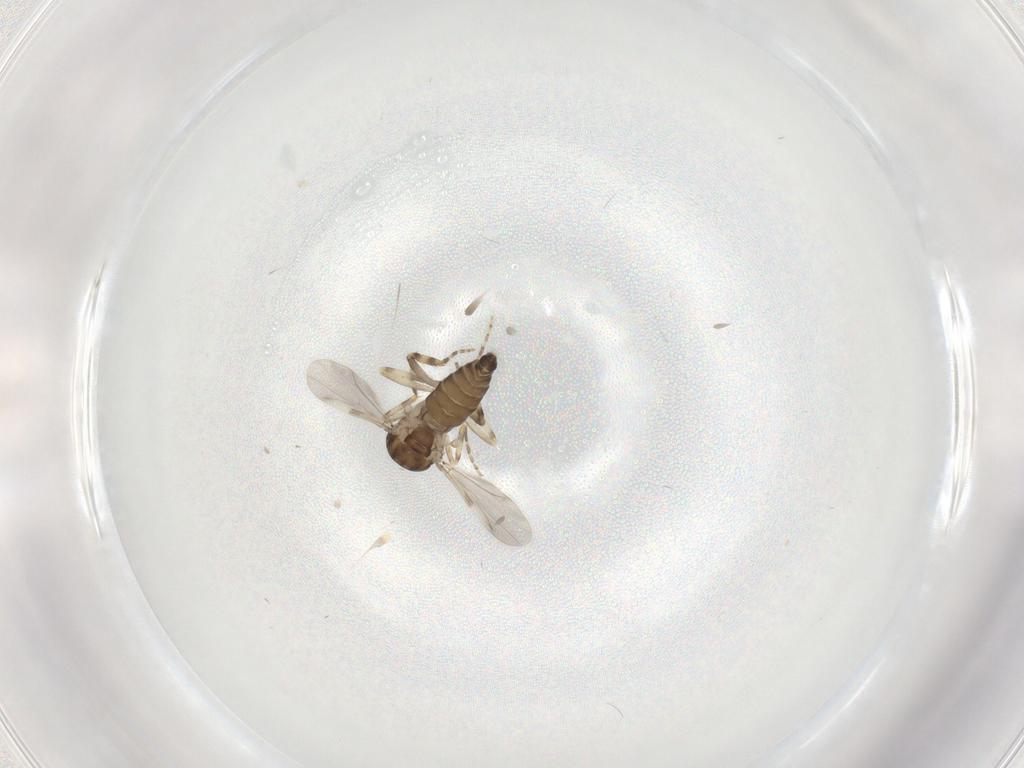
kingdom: Animalia
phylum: Arthropoda
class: Insecta
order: Diptera
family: Ceratopogonidae
